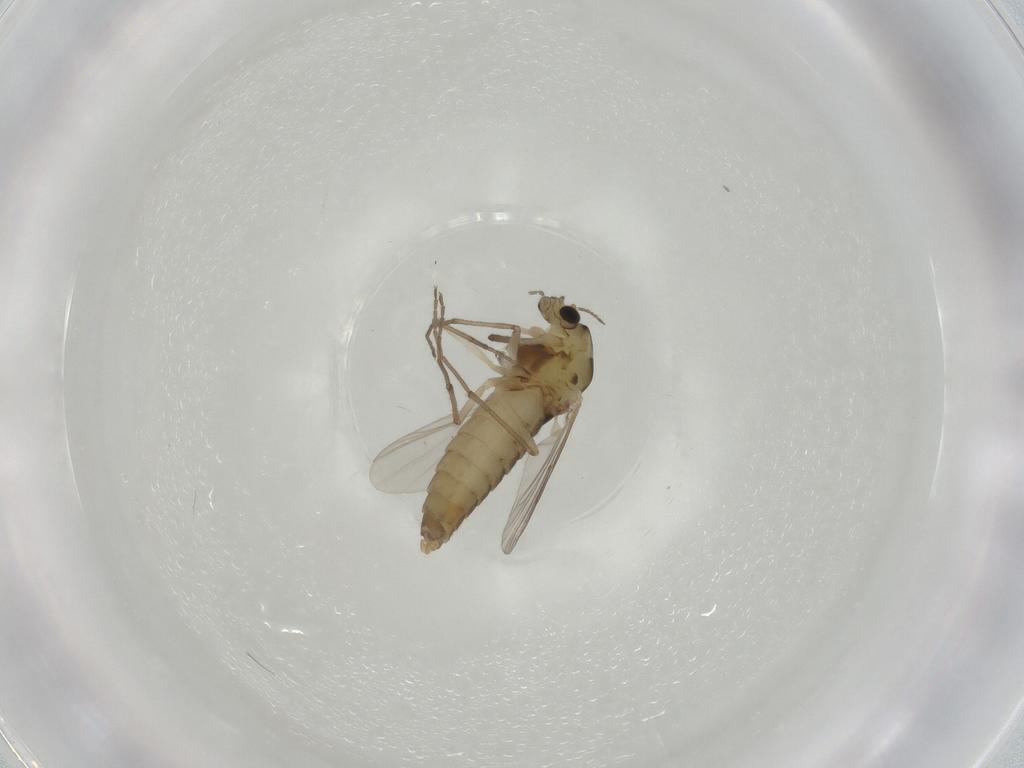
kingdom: Animalia
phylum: Arthropoda
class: Insecta
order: Diptera
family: Chironomidae
